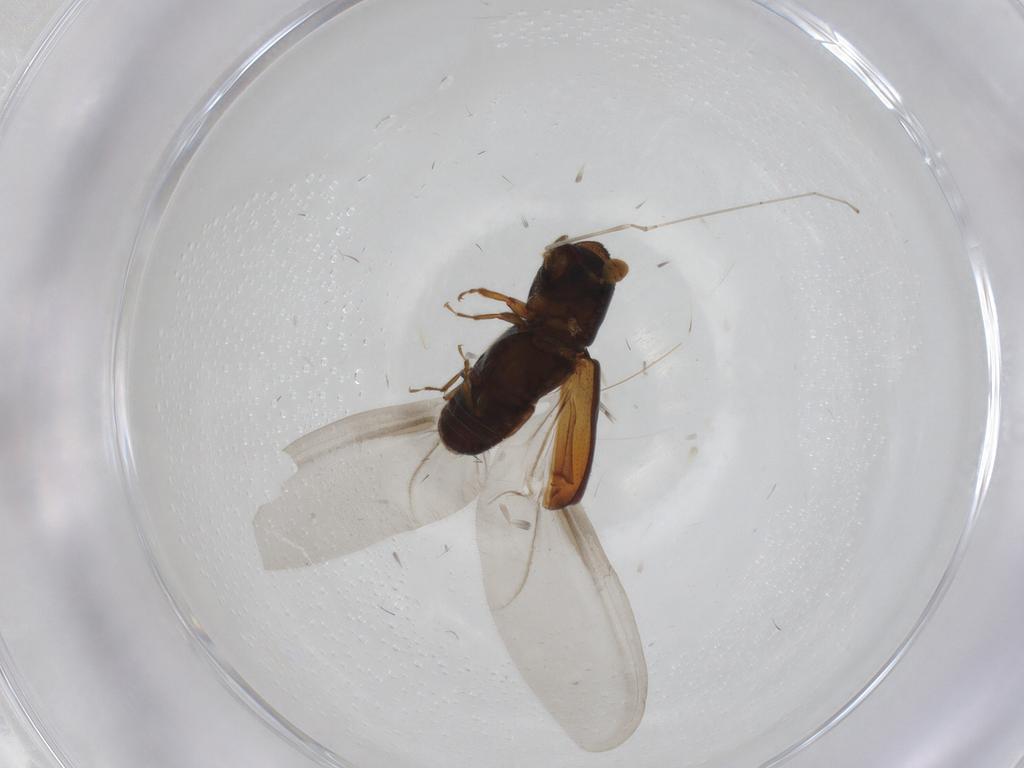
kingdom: Animalia
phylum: Arthropoda
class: Insecta
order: Coleoptera
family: Curculionidae
